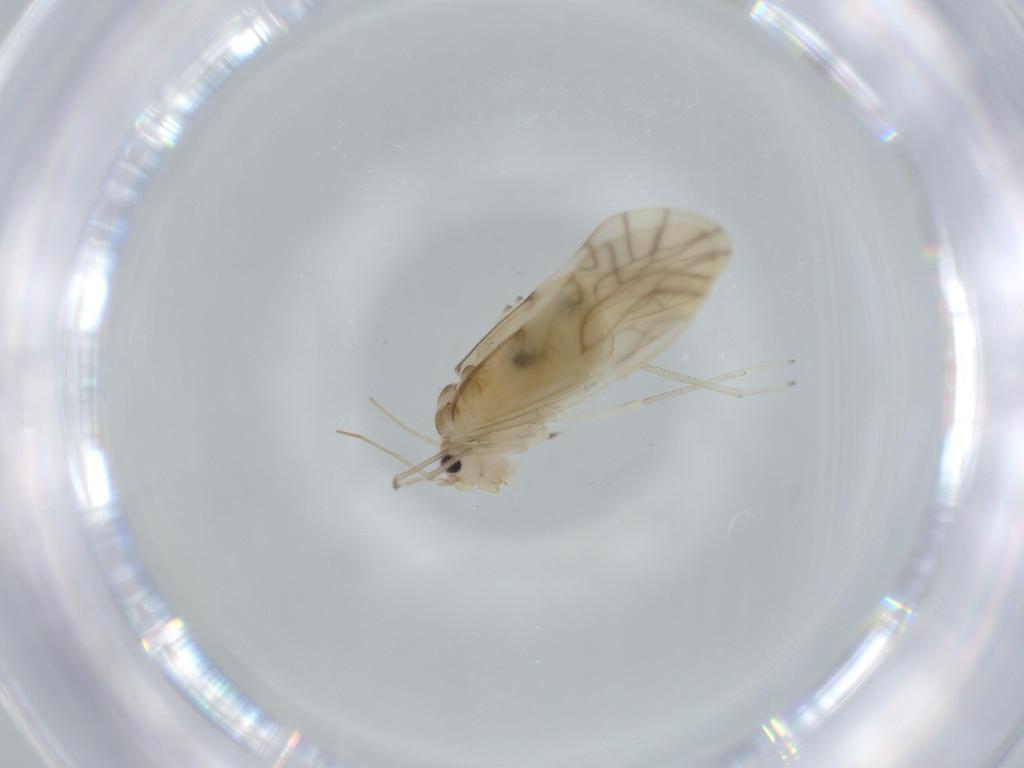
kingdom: Animalia
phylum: Arthropoda
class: Insecta
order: Psocodea
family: Caeciliusidae
